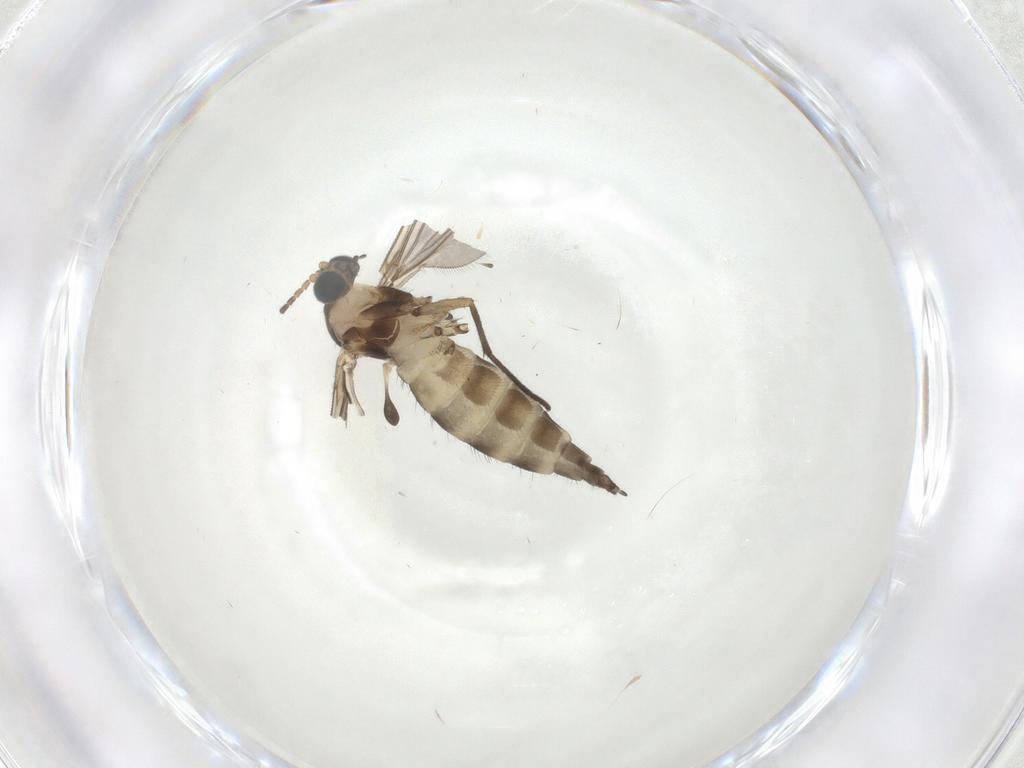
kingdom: Animalia
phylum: Arthropoda
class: Insecta
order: Diptera
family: Sciaridae
